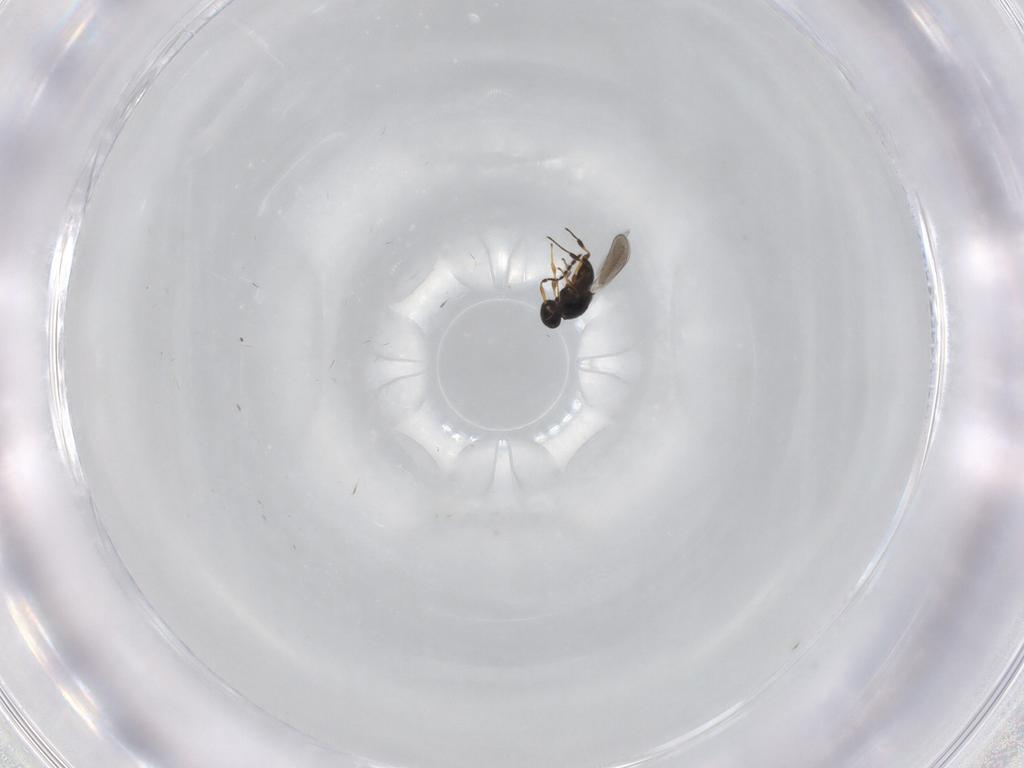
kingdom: Animalia
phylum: Arthropoda
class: Insecta
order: Hymenoptera
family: Platygastridae
